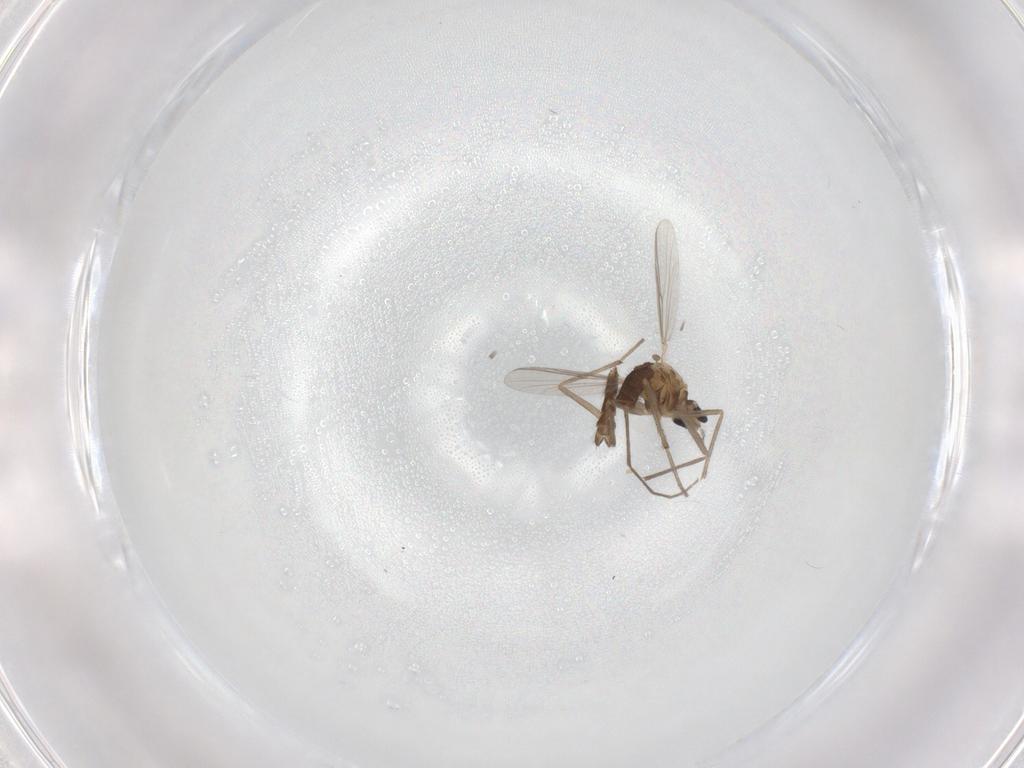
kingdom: Animalia
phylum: Arthropoda
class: Insecta
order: Diptera
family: Chironomidae
